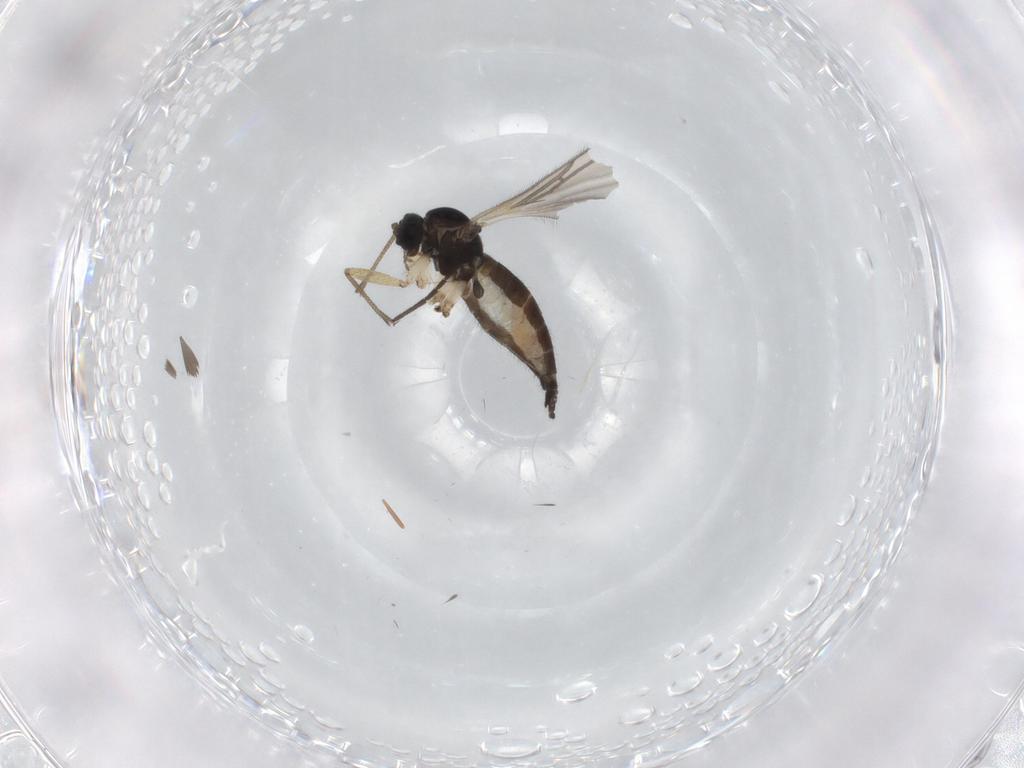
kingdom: Animalia
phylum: Arthropoda
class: Insecta
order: Diptera
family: Sciaridae
